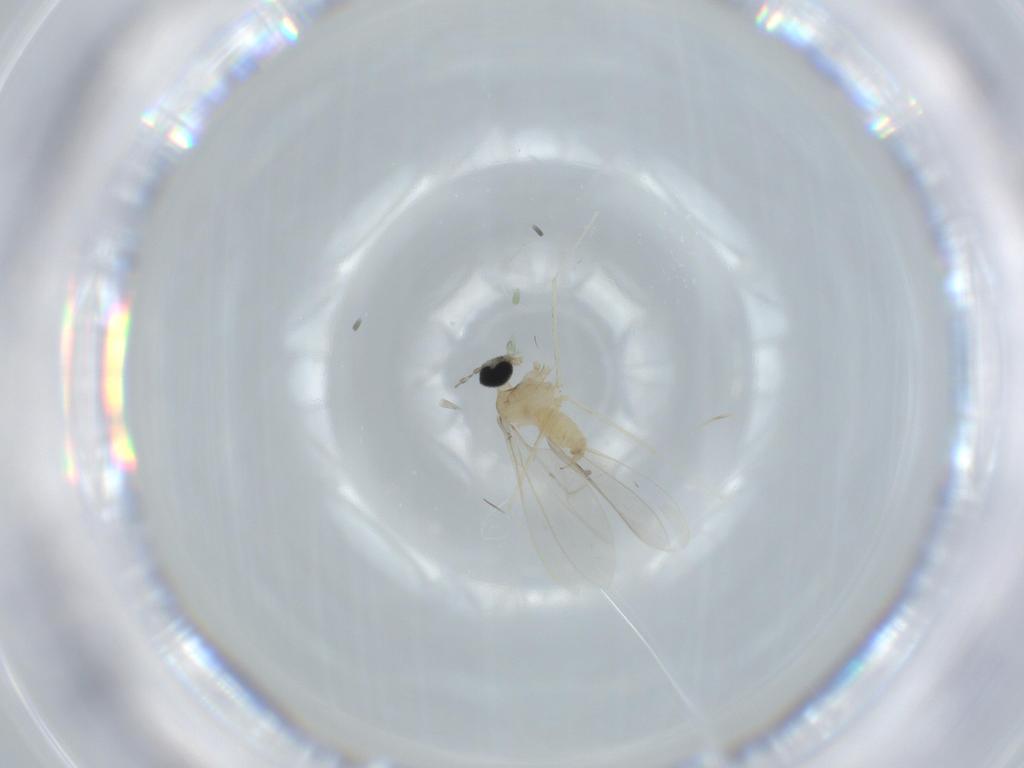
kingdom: Animalia
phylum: Arthropoda
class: Insecta
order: Diptera
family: Cecidomyiidae
